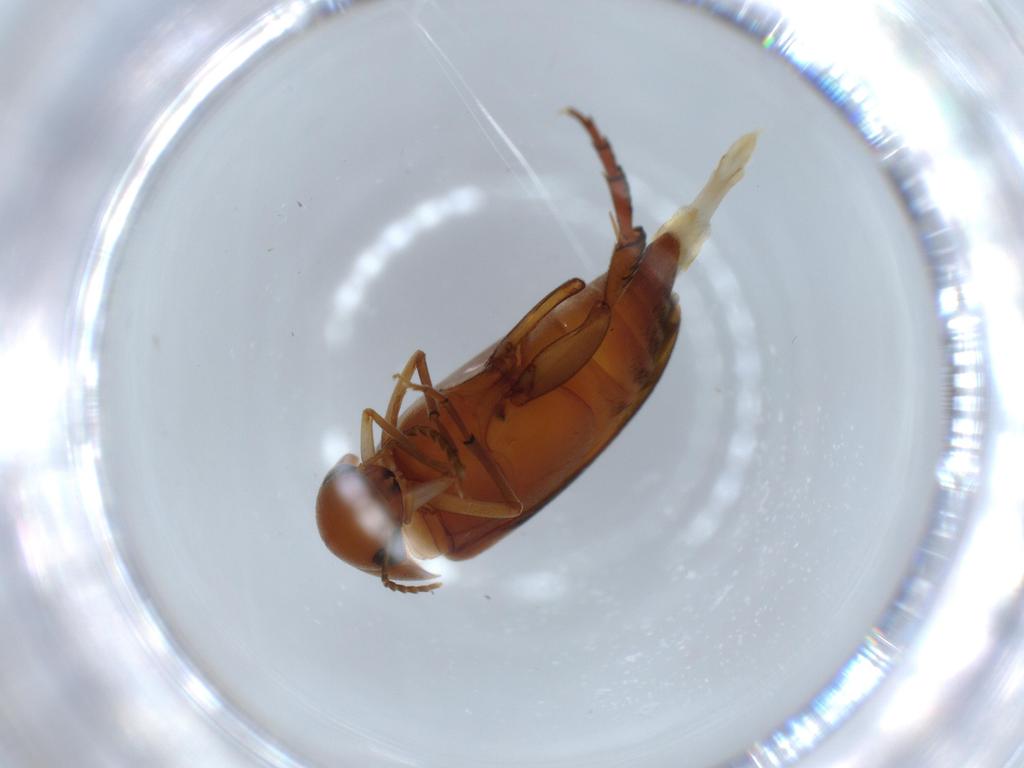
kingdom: Animalia
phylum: Arthropoda
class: Insecta
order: Coleoptera
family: Mordellidae
